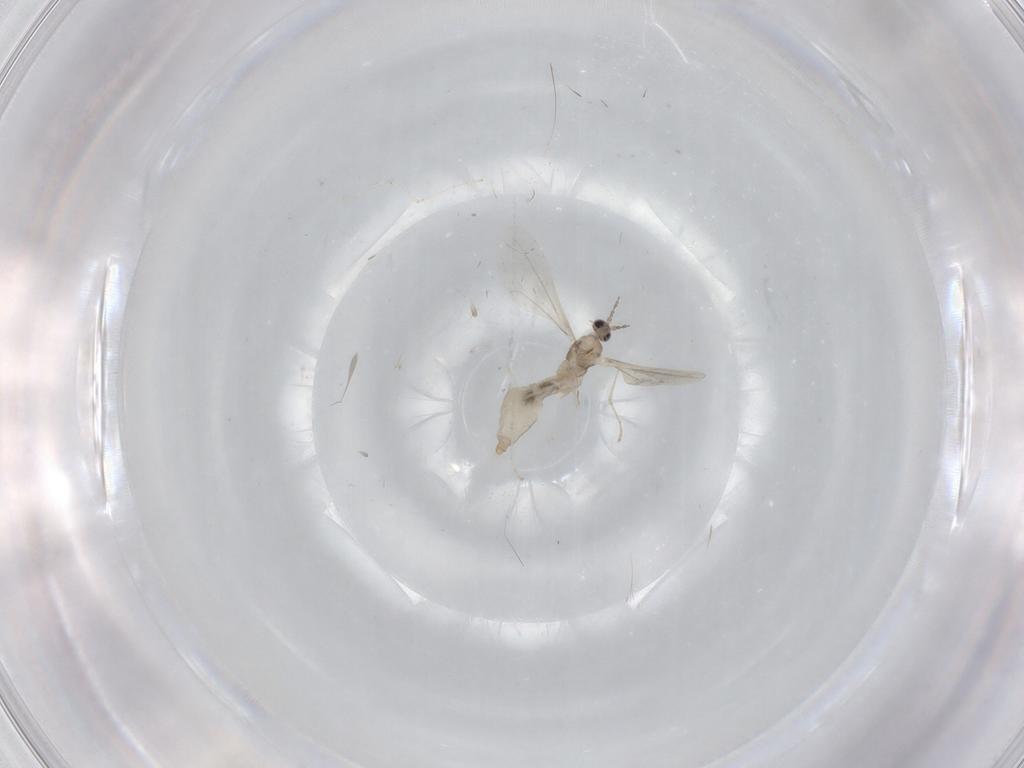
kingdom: Animalia
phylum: Arthropoda
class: Insecta
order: Diptera
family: Cecidomyiidae
